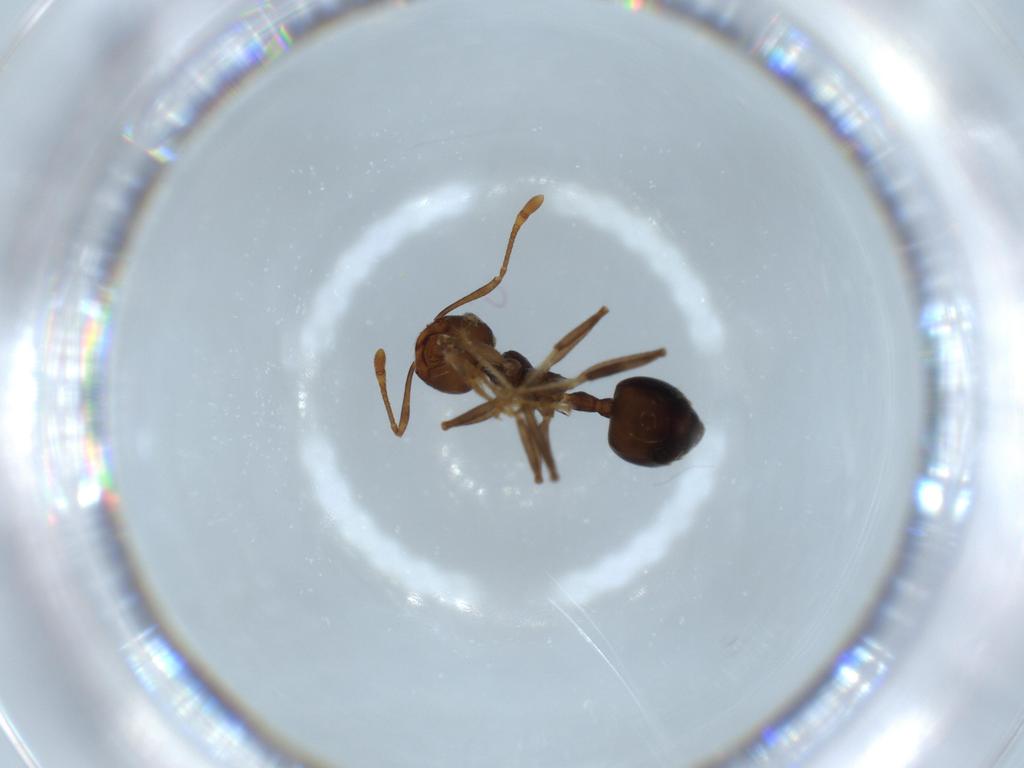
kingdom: Animalia
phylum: Arthropoda
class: Insecta
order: Hymenoptera
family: Formicidae
